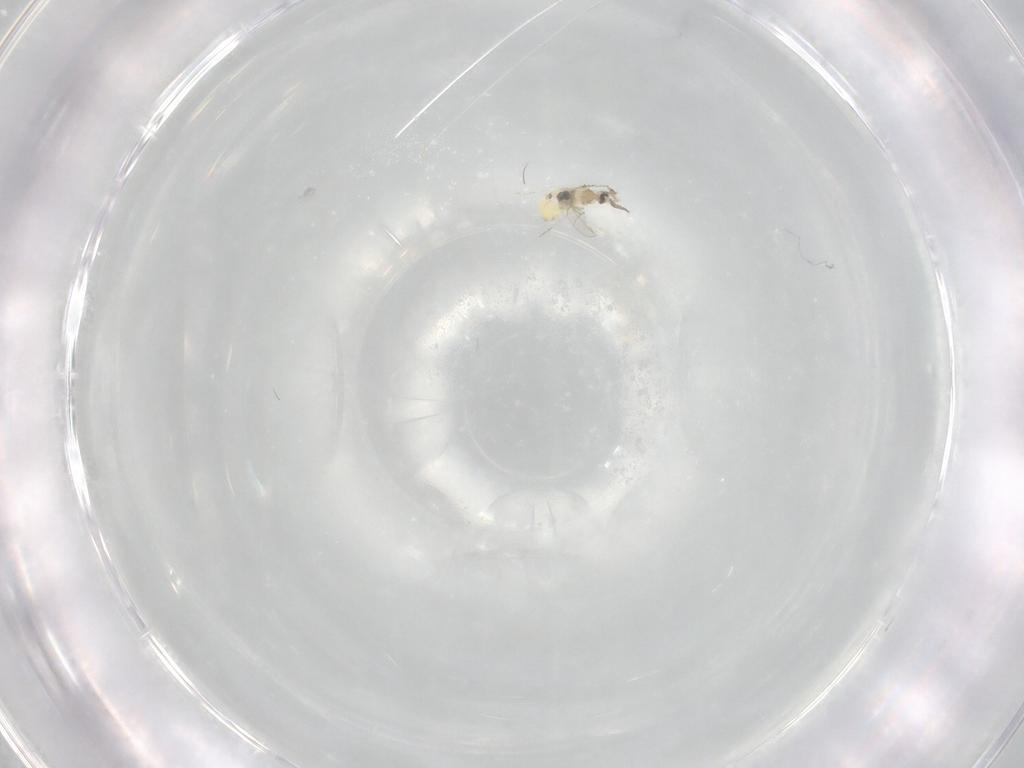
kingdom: Animalia
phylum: Arthropoda
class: Insecta
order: Diptera
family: Cecidomyiidae
